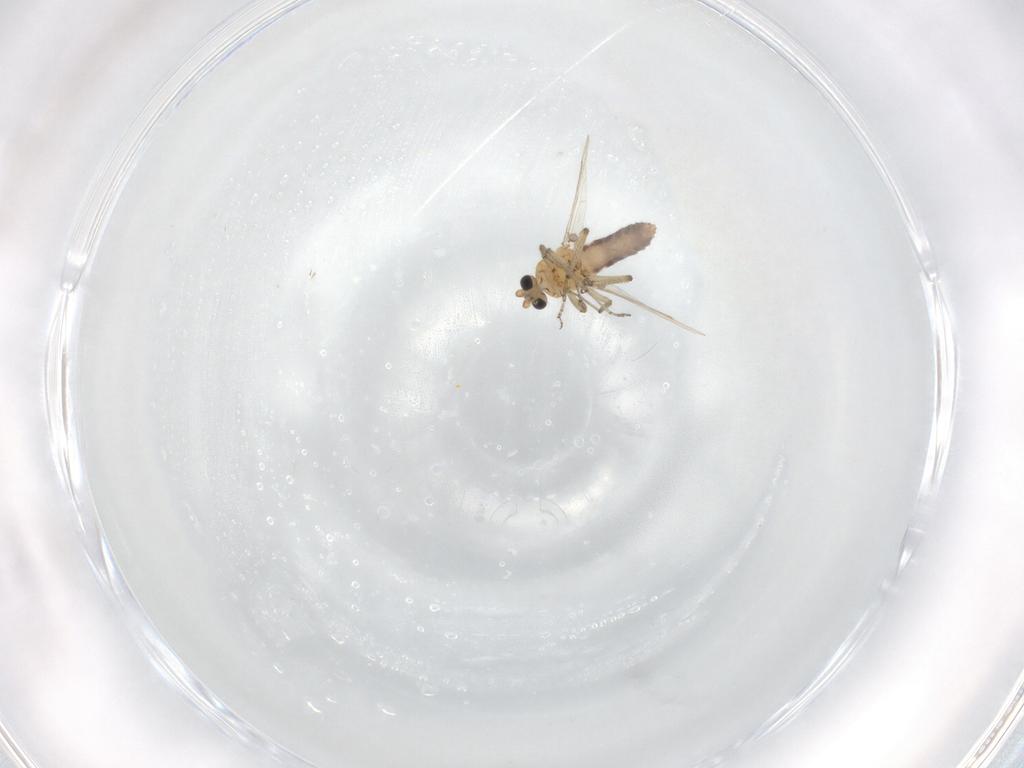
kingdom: Animalia
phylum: Arthropoda
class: Insecta
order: Diptera
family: Ceratopogonidae
